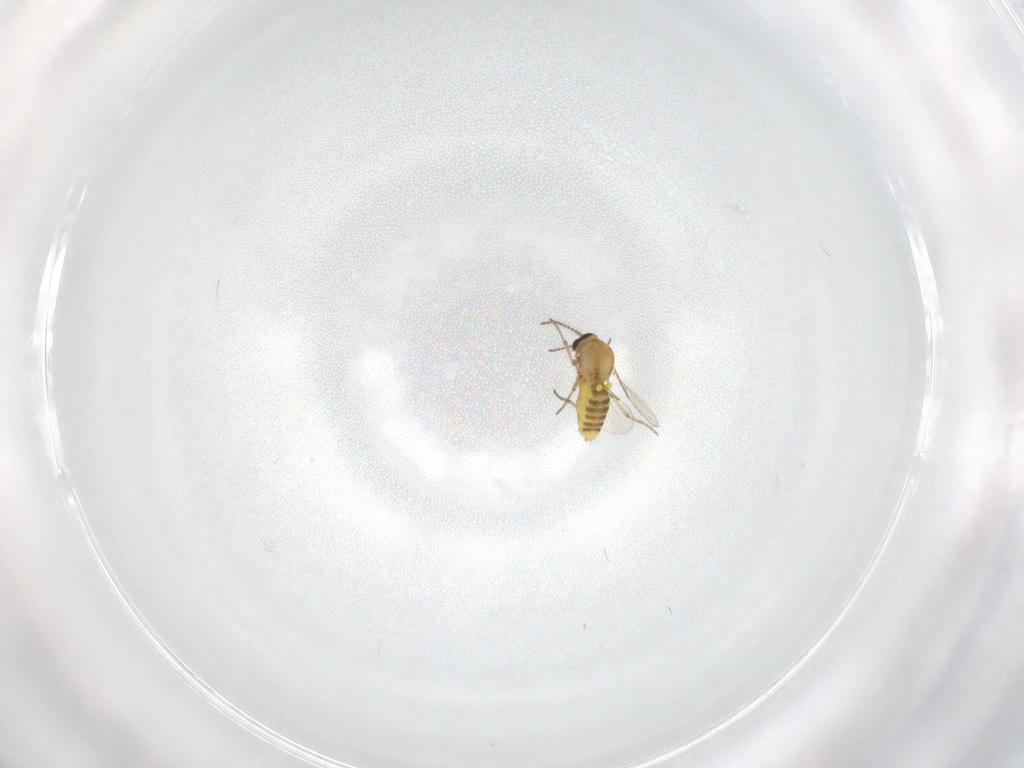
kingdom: Animalia
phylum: Arthropoda
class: Insecta
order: Diptera
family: Ceratopogonidae
